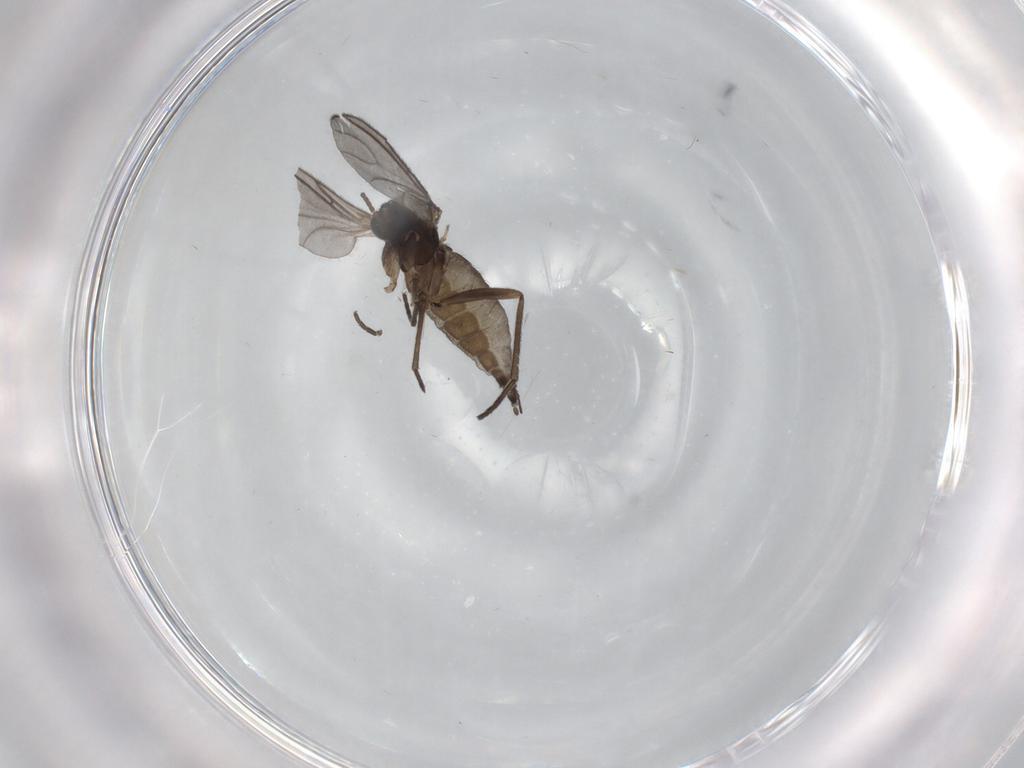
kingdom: Animalia
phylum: Arthropoda
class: Insecta
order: Diptera
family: Sciaridae
